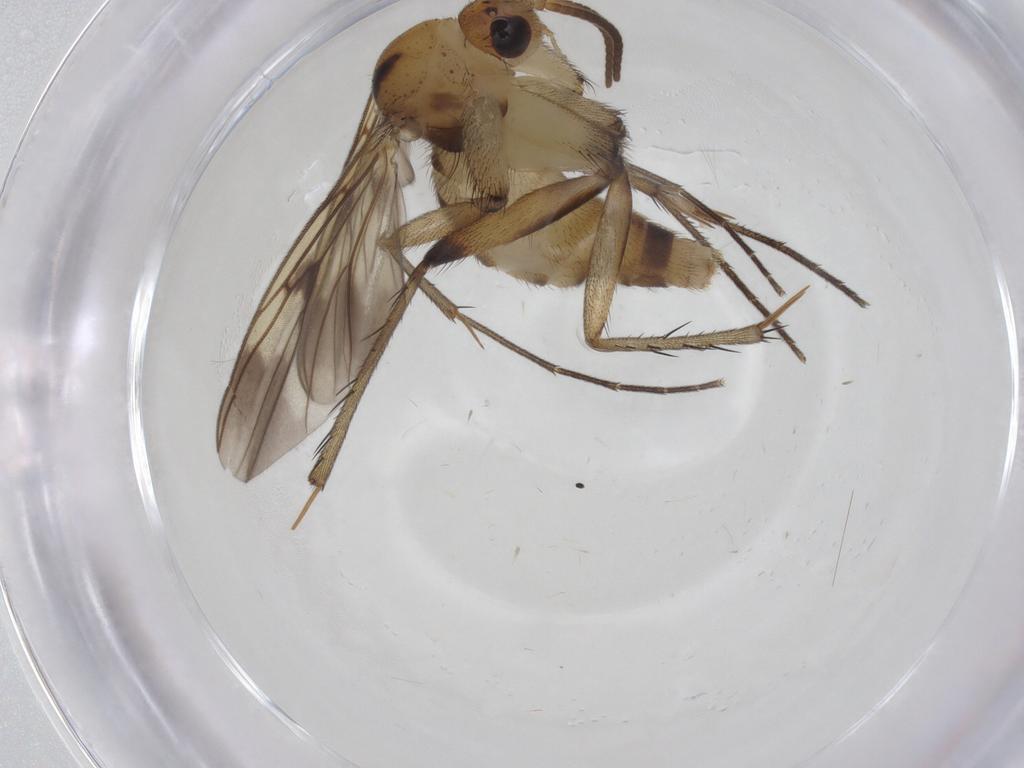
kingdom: Animalia
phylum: Arthropoda
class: Insecta
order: Diptera
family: Mycetophilidae
